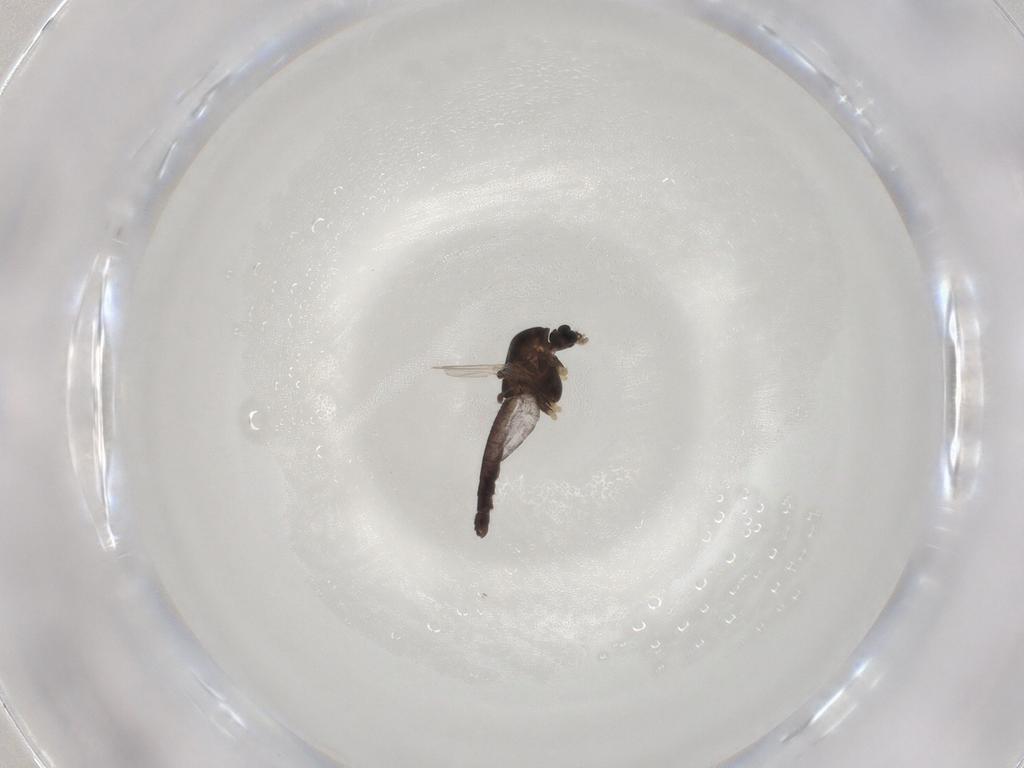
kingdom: Animalia
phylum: Arthropoda
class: Insecta
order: Diptera
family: Chironomidae
